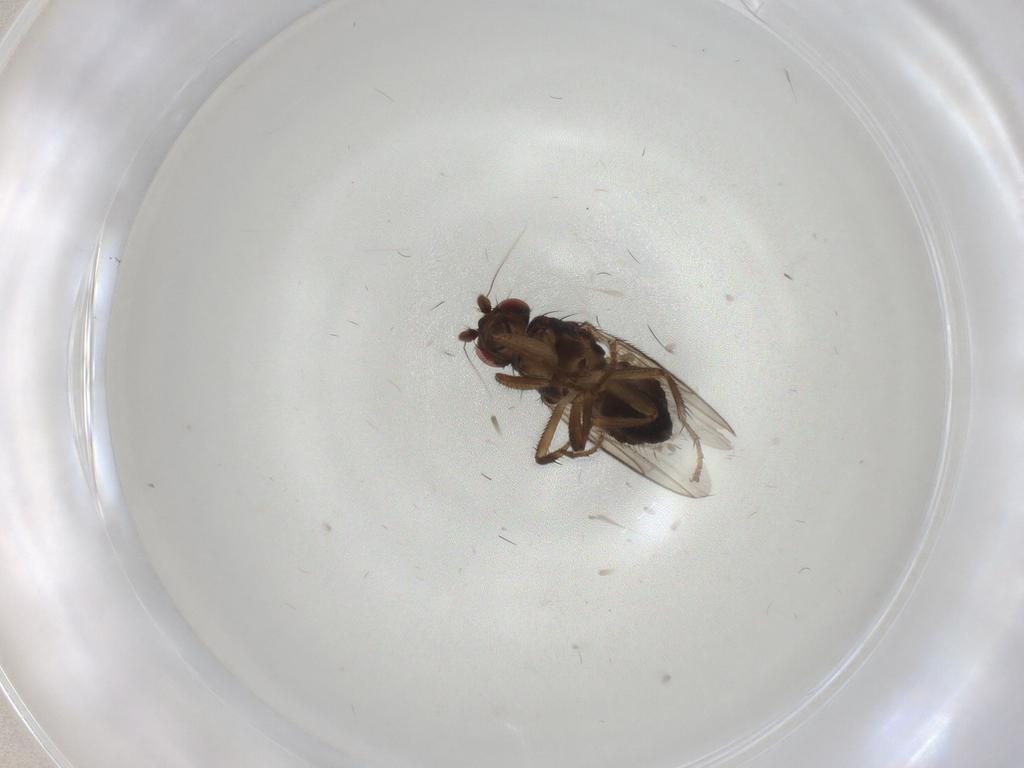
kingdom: Animalia
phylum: Arthropoda
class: Insecta
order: Diptera
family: Sphaeroceridae
